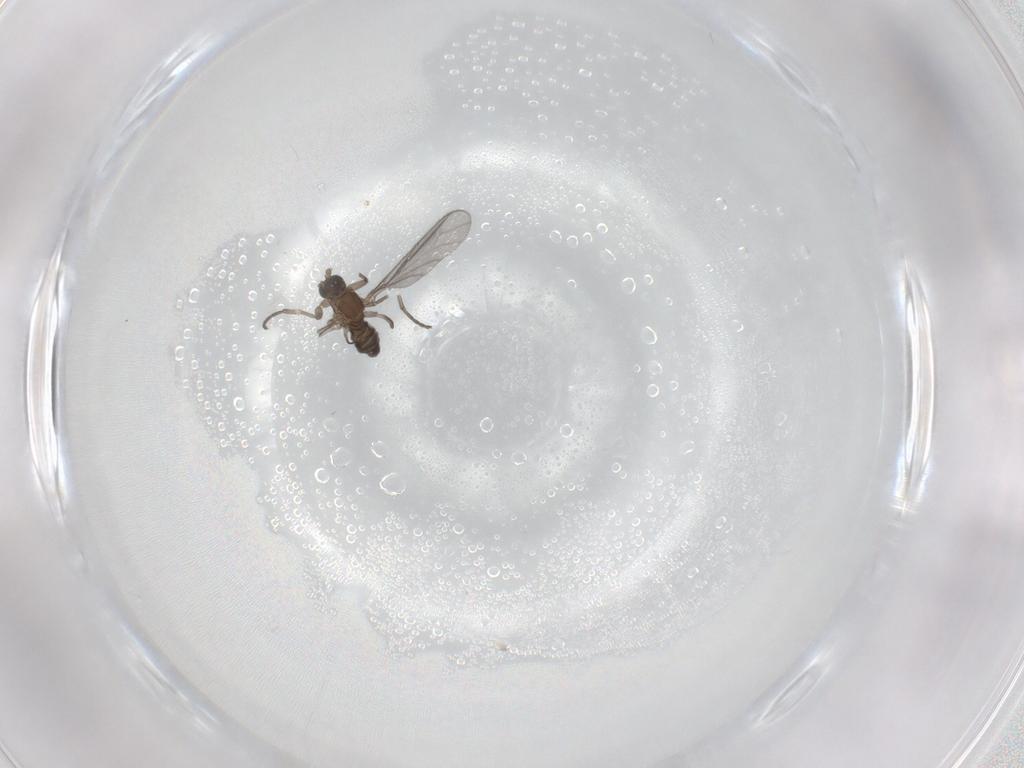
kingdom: Animalia
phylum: Arthropoda
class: Insecta
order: Diptera
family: Sciaridae
